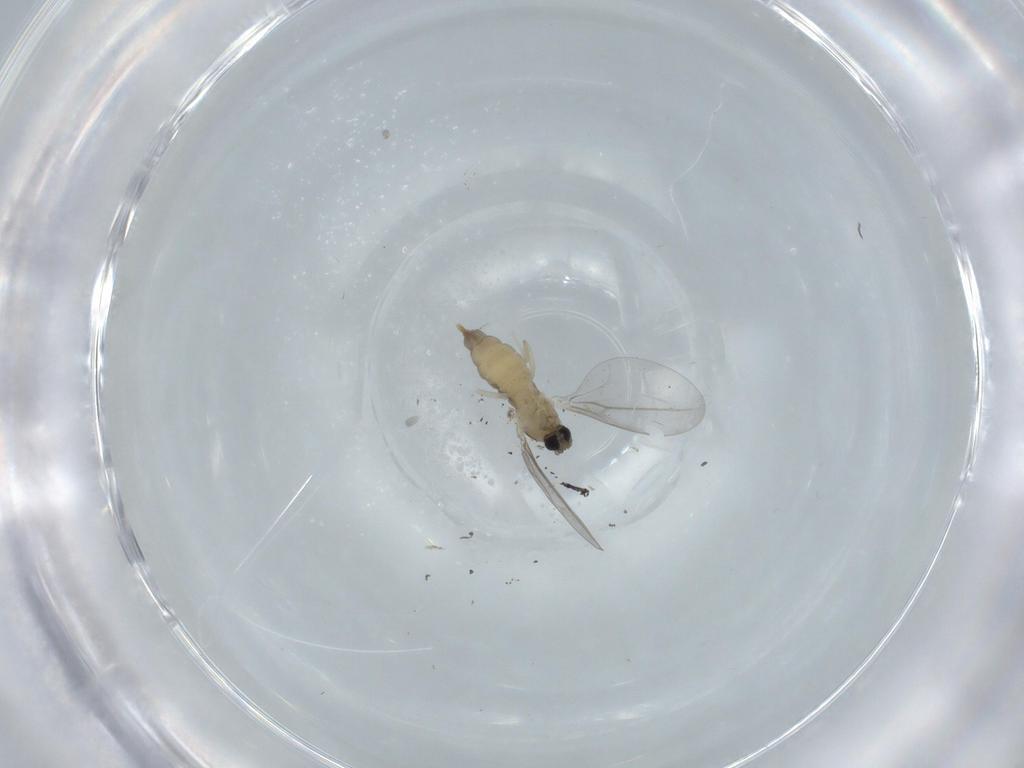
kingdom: Animalia
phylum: Arthropoda
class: Insecta
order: Diptera
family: Cecidomyiidae
